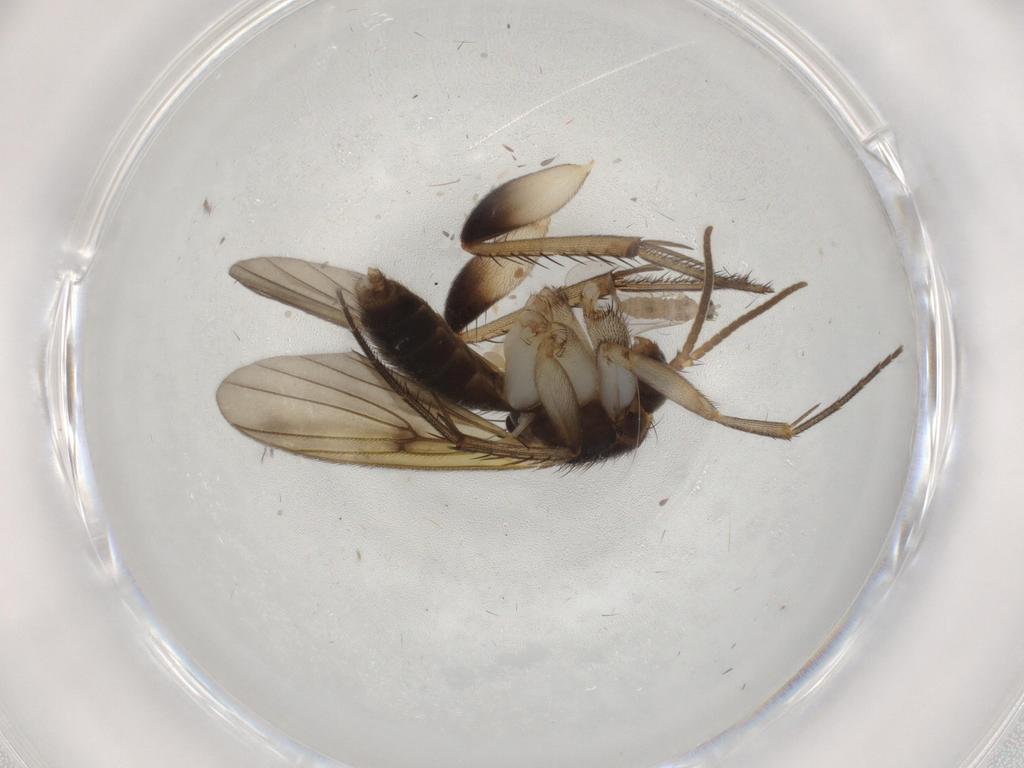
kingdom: Animalia
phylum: Arthropoda
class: Insecta
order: Diptera
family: Mycetophilidae
